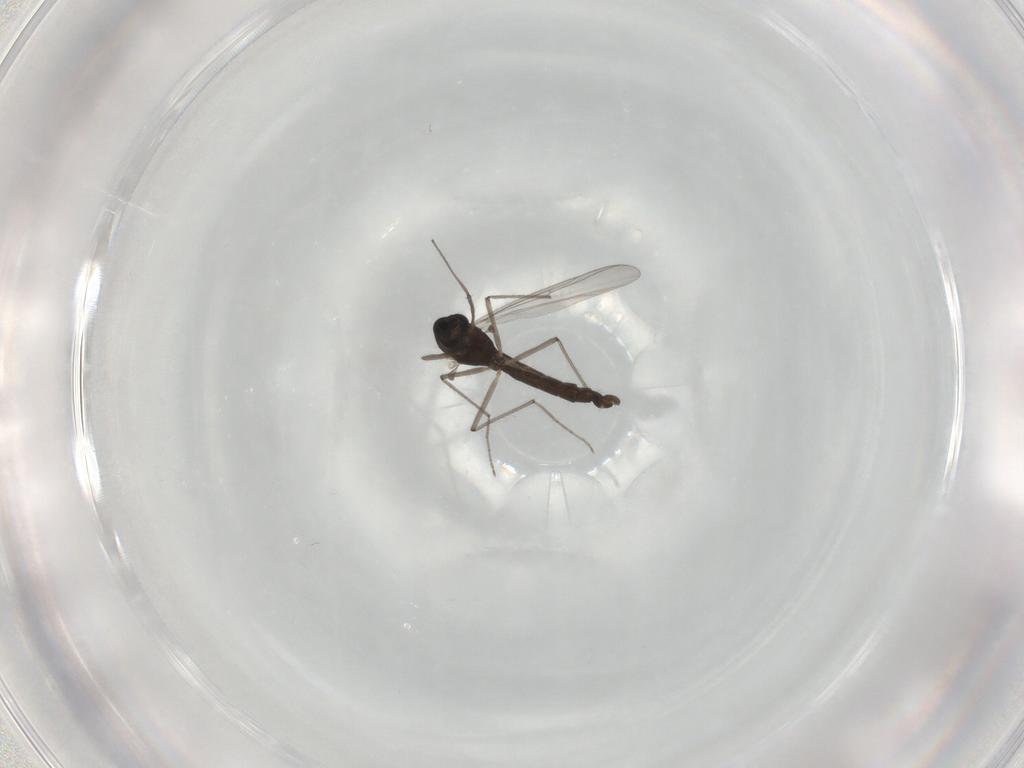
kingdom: Animalia
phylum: Arthropoda
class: Insecta
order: Diptera
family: Chironomidae
